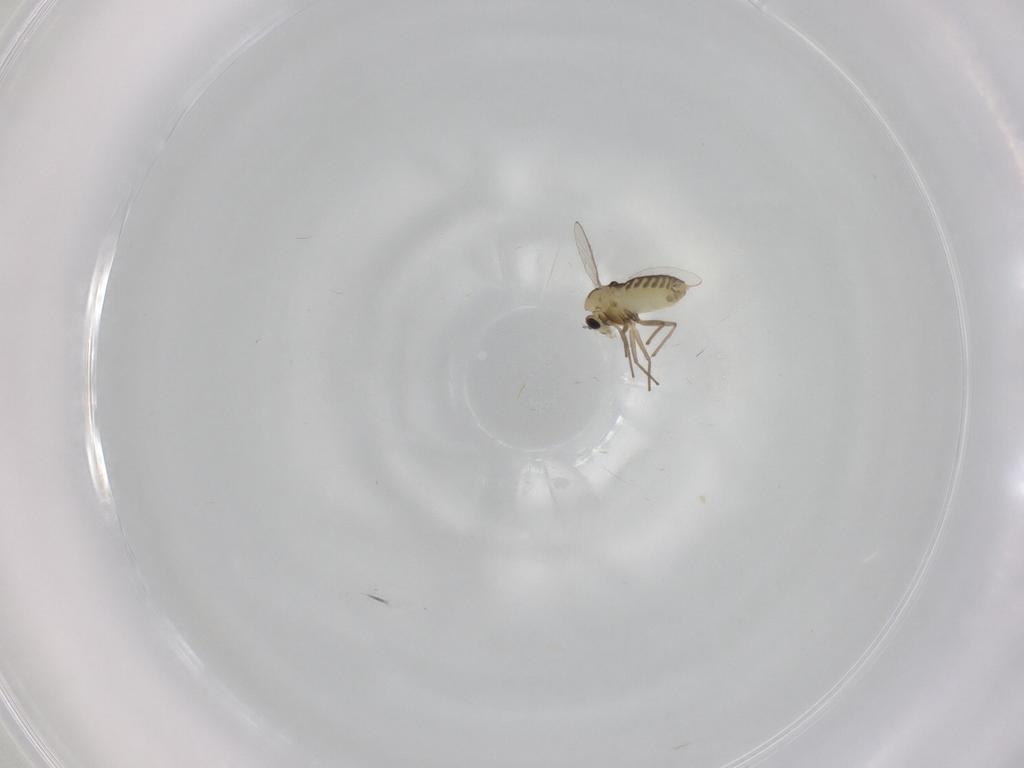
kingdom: Animalia
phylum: Arthropoda
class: Insecta
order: Diptera
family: Chironomidae
